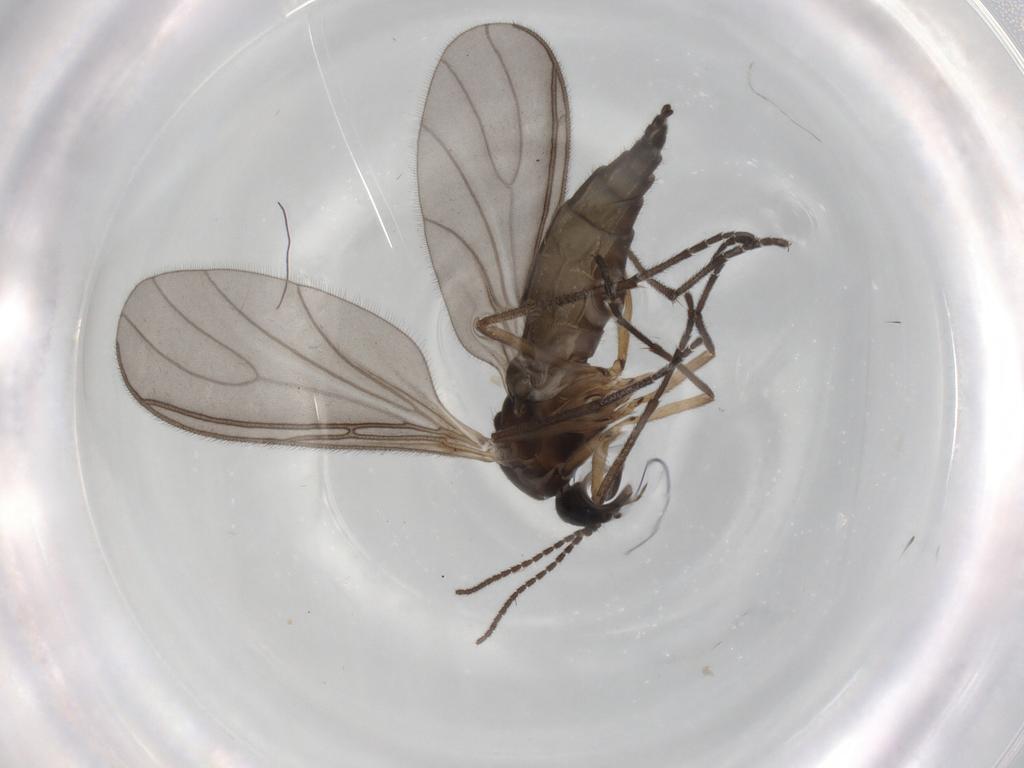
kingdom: Animalia
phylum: Arthropoda
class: Insecta
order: Diptera
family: Sciaridae
